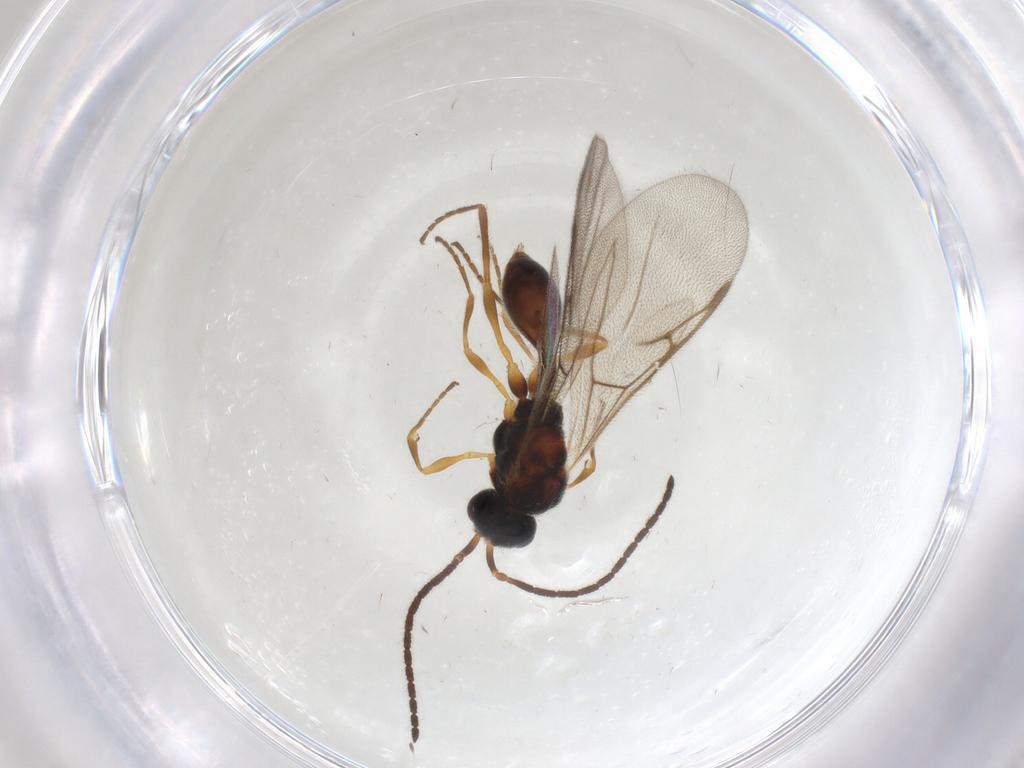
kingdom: Animalia
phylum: Arthropoda
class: Insecta
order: Hymenoptera
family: Diapriidae
